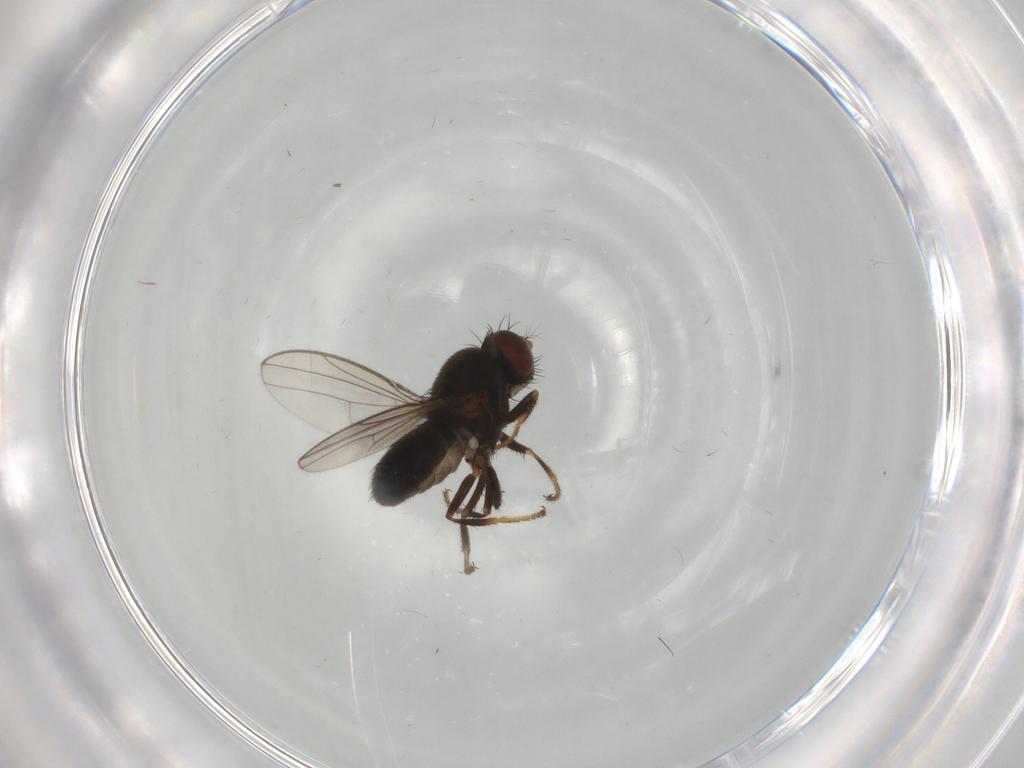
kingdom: Animalia
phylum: Arthropoda
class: Insecta
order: Diptera
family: Ephydridae
